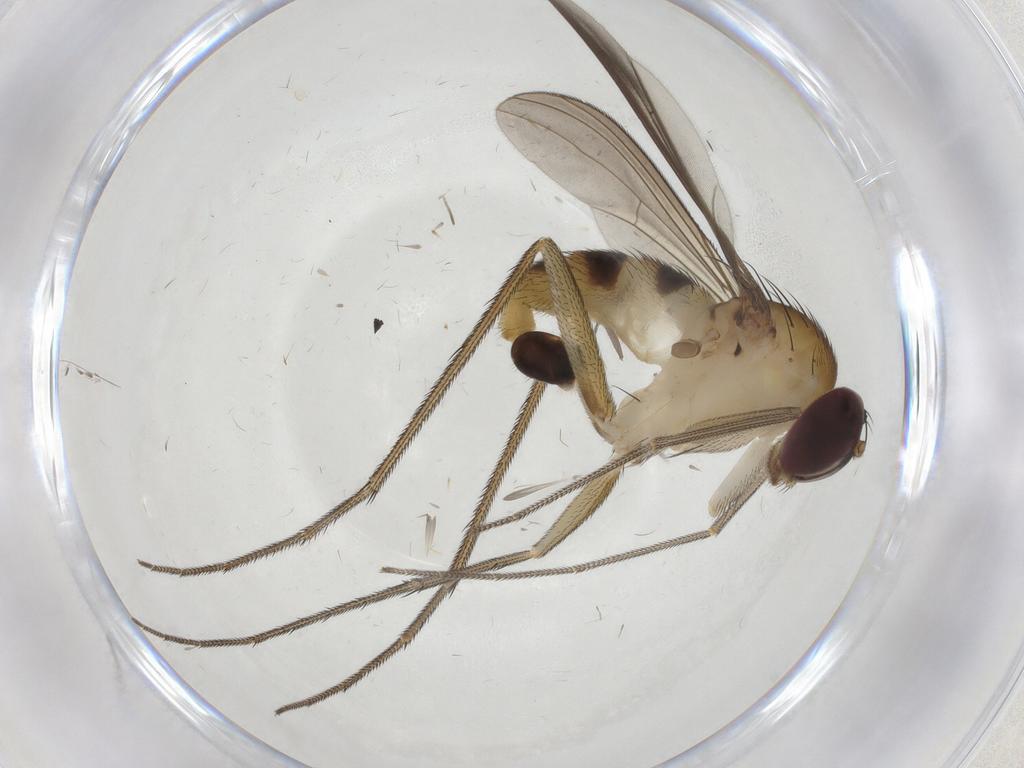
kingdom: Animalia
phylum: Arthropoda
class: Insecta
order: Diptera
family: Dolichopodidae
